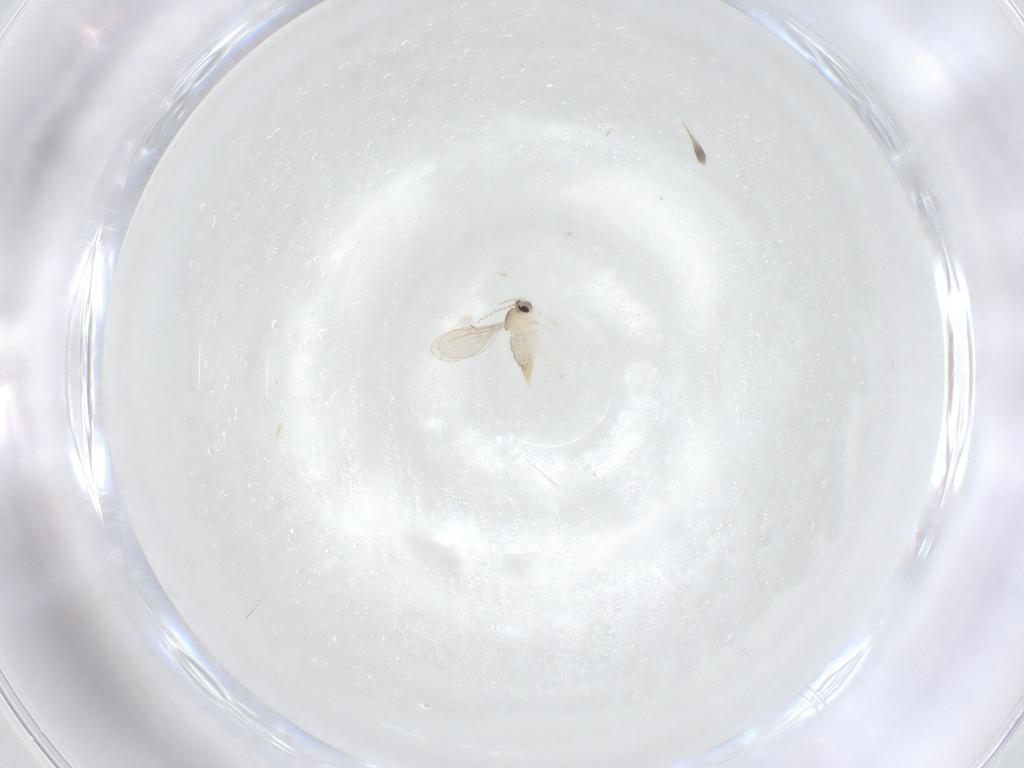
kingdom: Animalia
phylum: Arthropoda
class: Insecta
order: Diptera
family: Cecidomyiidae
